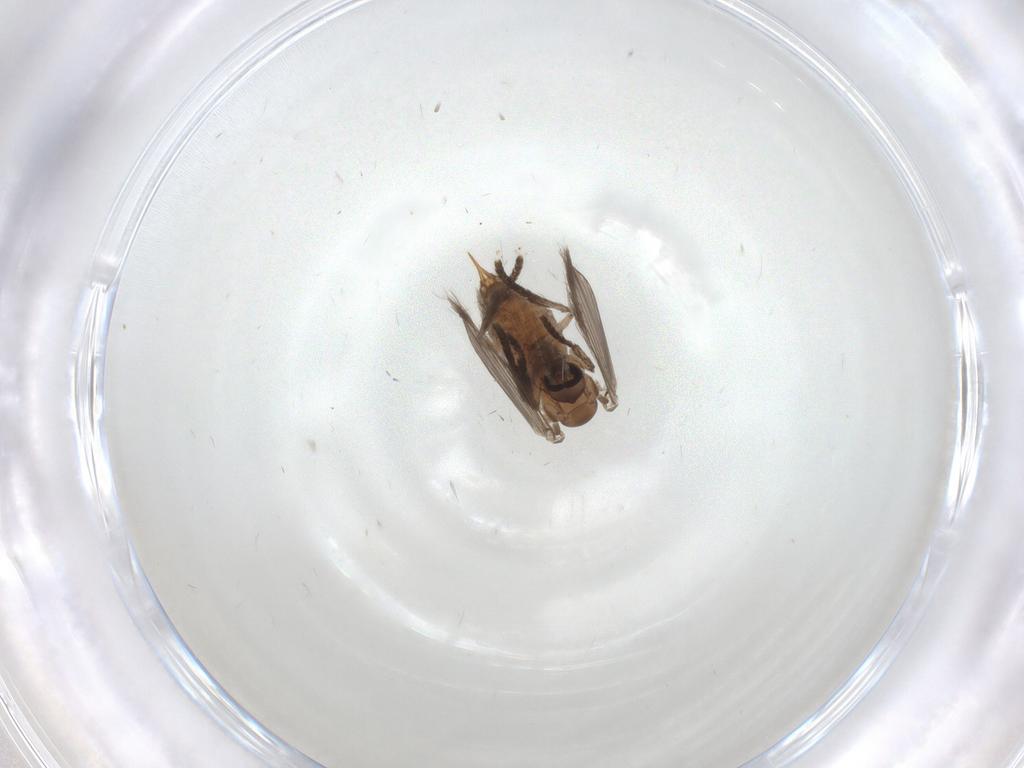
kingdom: Animalia
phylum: Arthropoda
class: Insecta
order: Diptera
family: Psychodidae
